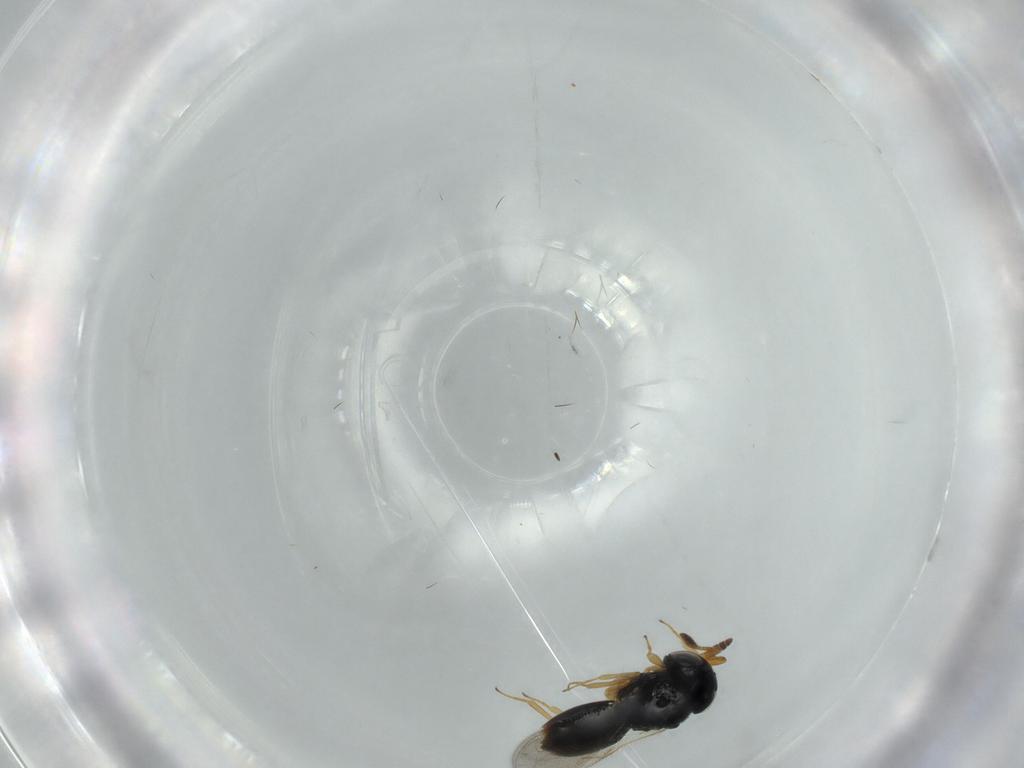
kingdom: Animalia
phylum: Arthropoda
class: Insecta
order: Hymenoptera
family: Scelionidae
